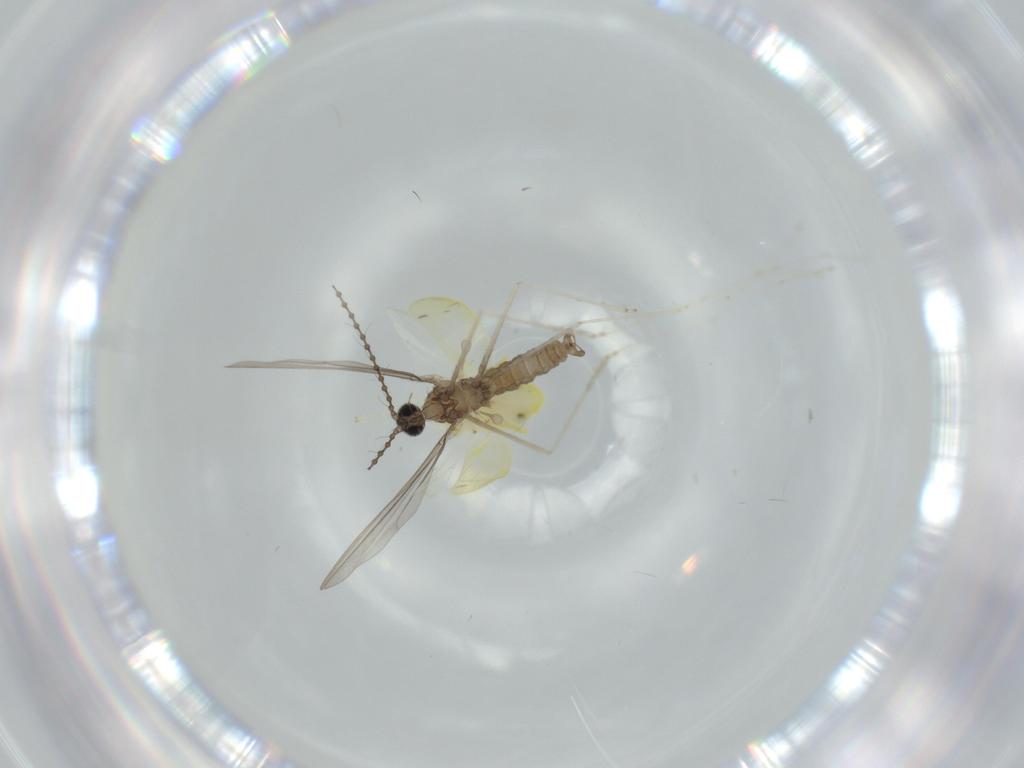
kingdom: Animalia
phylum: Arthropoda
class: Insecta
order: Diptera
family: Cecidomyiidae
